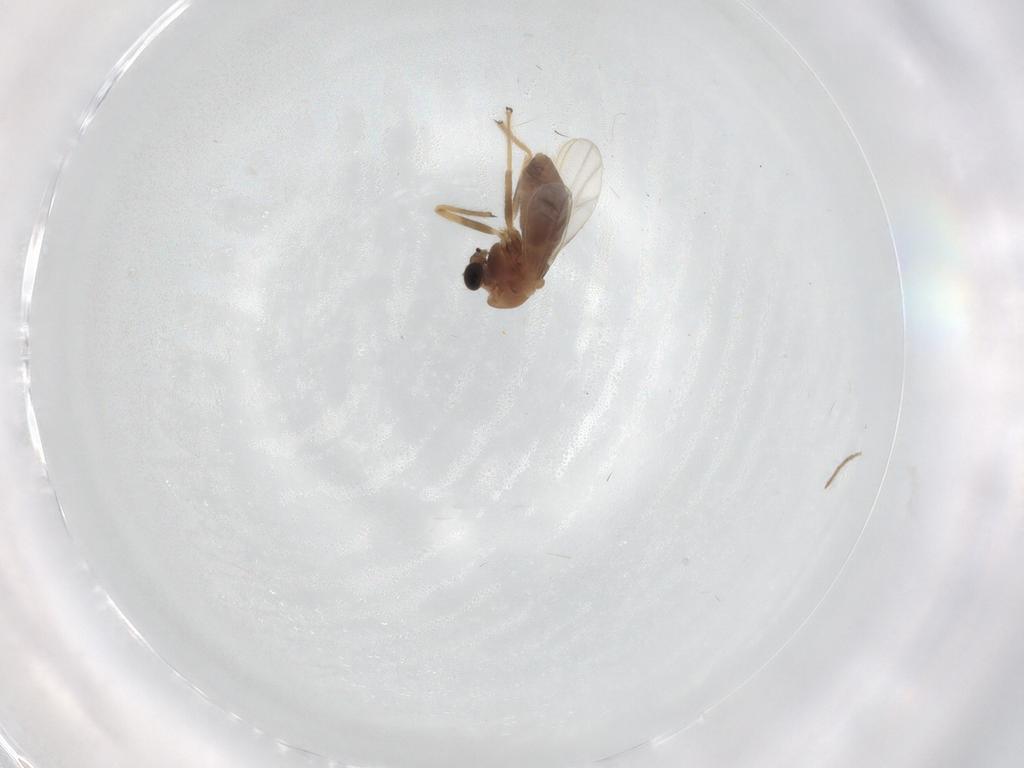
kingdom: Animalia
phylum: Arthropoda
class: Insecta
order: Diptera
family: Chironomidae
